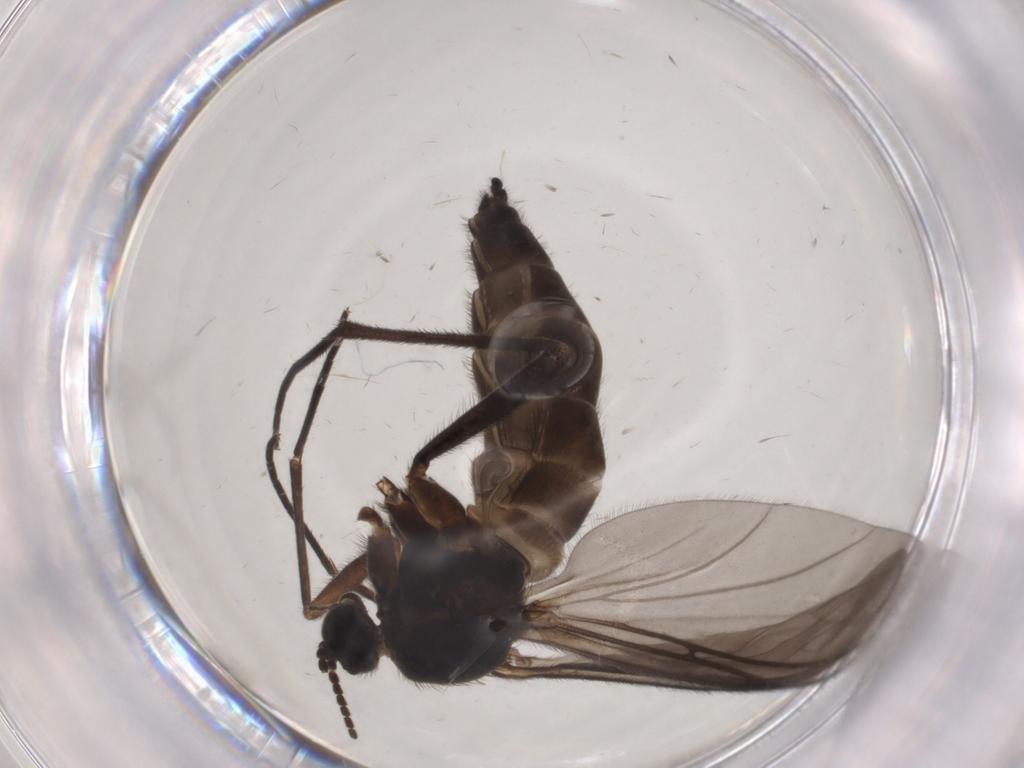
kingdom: Animalia
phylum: Arthropoda
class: Insecta
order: Diptera
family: Sciaridae
